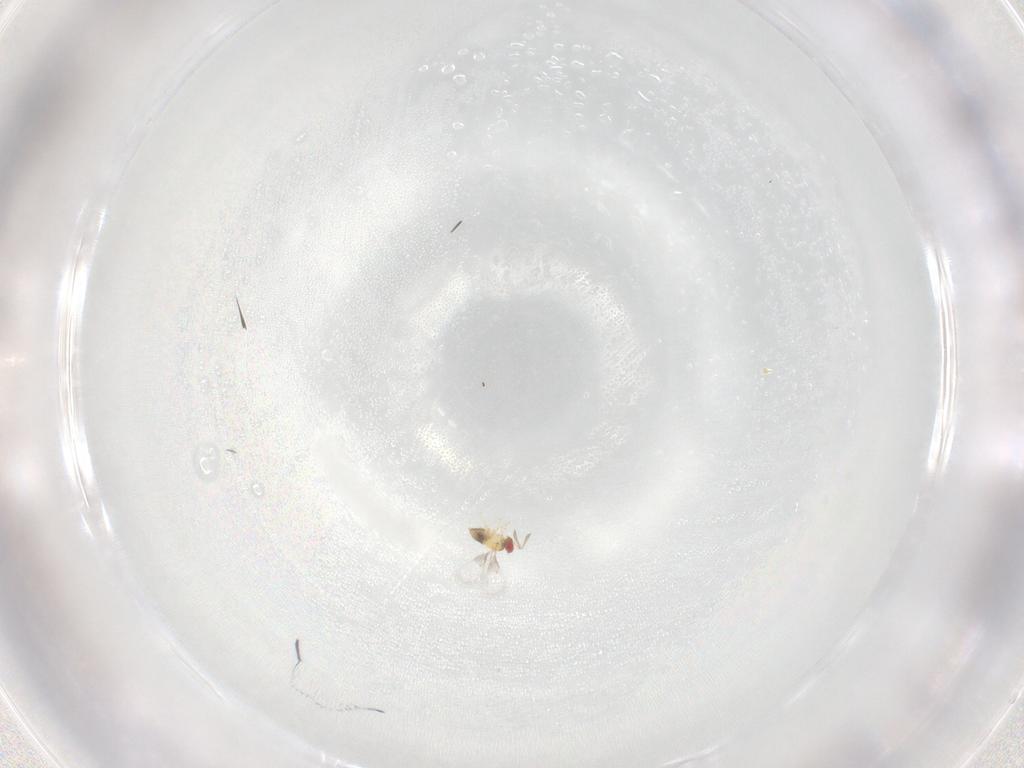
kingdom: Animalia
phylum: Arthropoda
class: Insecta
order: Hymenoptera
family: Trichogrammatidae
